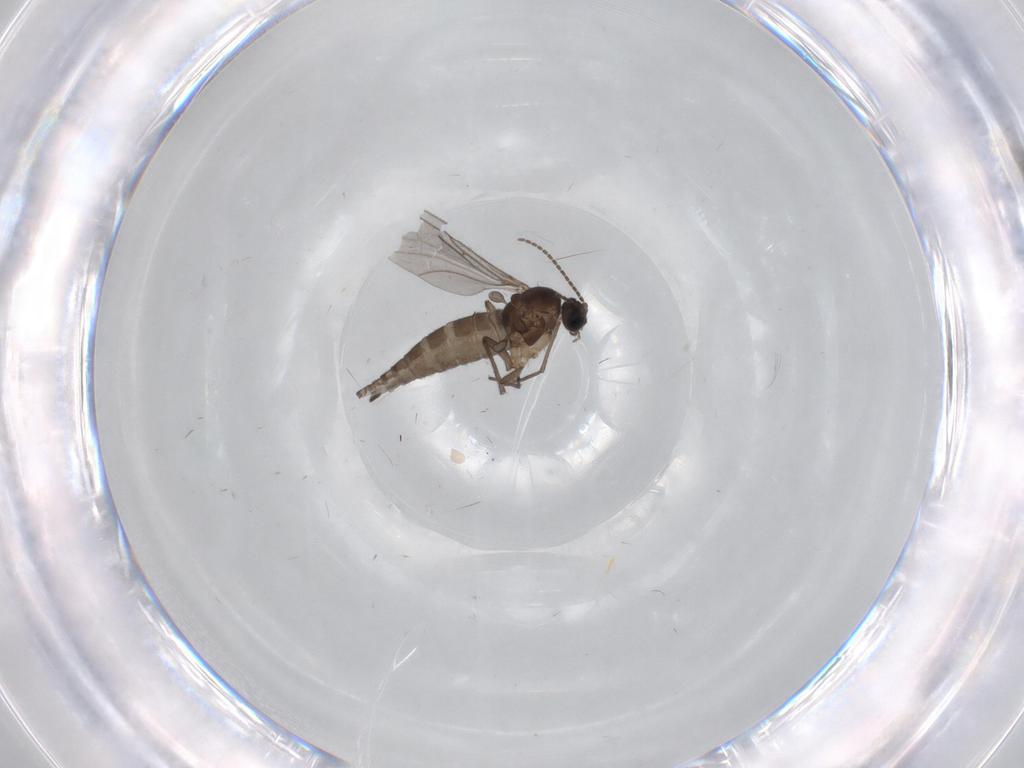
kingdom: Animalia
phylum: Arthropoda
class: Insecta
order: Diptera
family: Sciaridae
